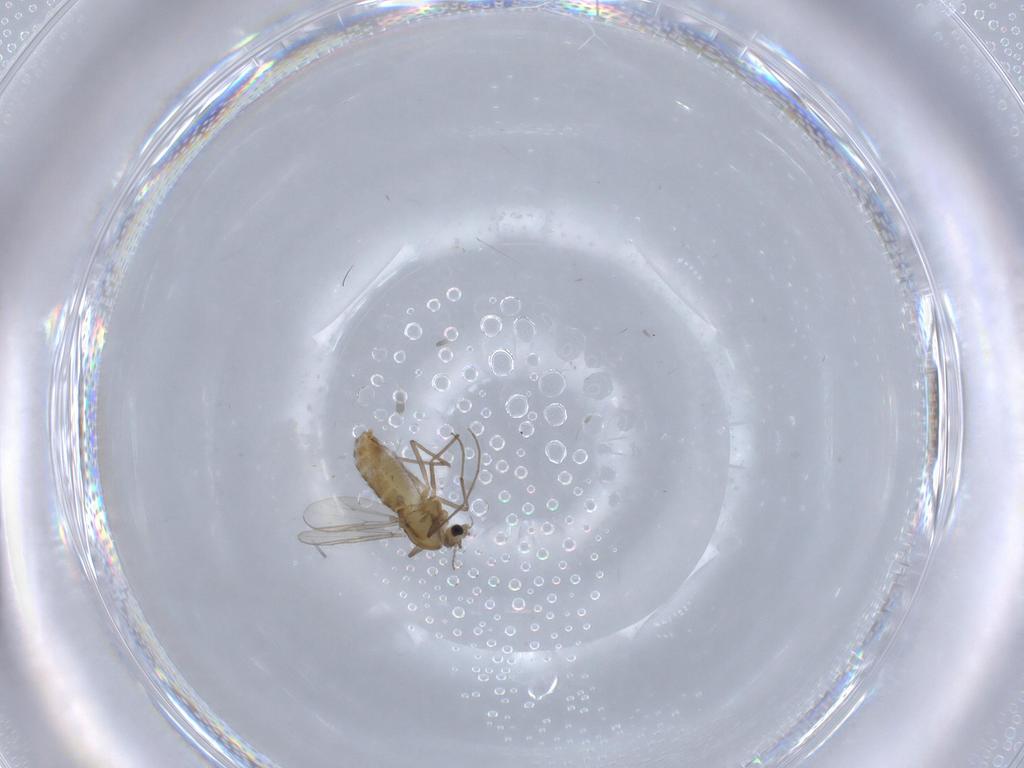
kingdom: Animalia
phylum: Arthropoda
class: Insecta
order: Diptera
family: Chironomidae
